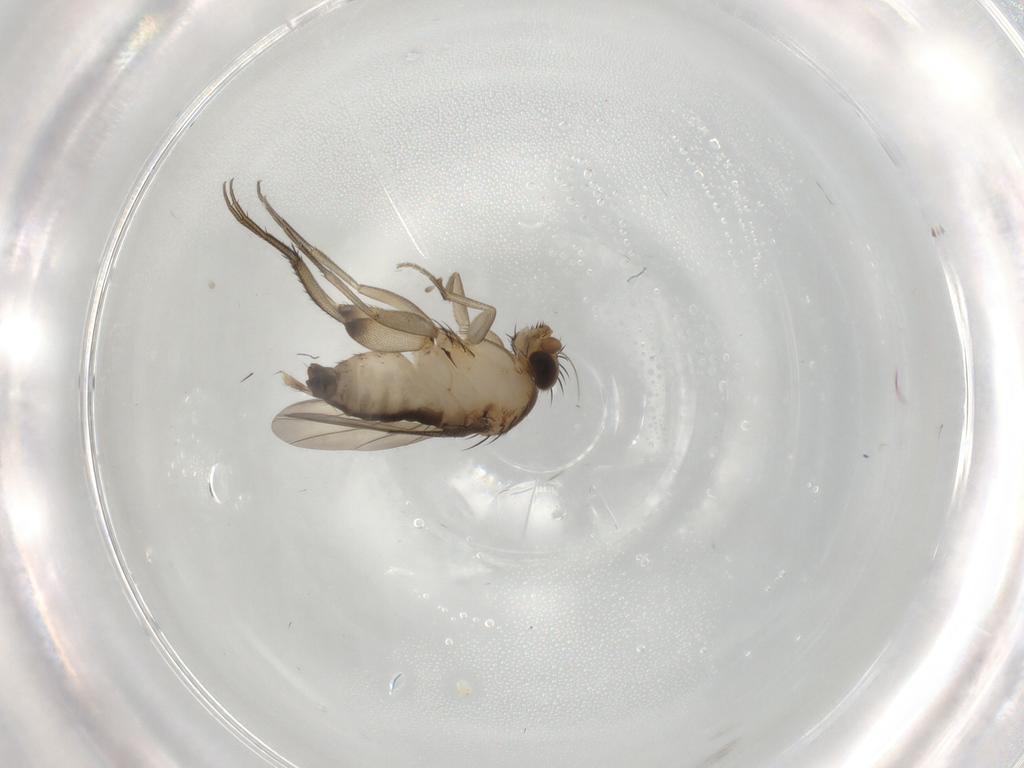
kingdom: Animalia
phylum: Arthropoda
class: Insecta
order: Diptera
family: Phoridae
